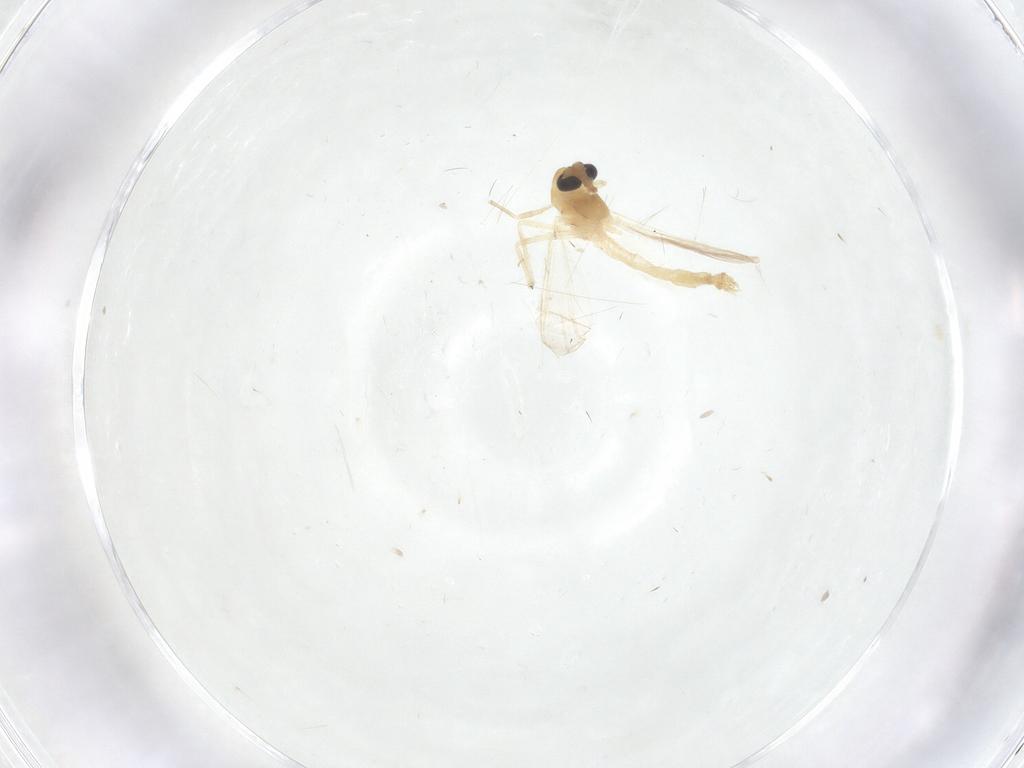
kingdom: Animalia
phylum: Arthropoda
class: Insecta
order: Diptera
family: Chironomidae
